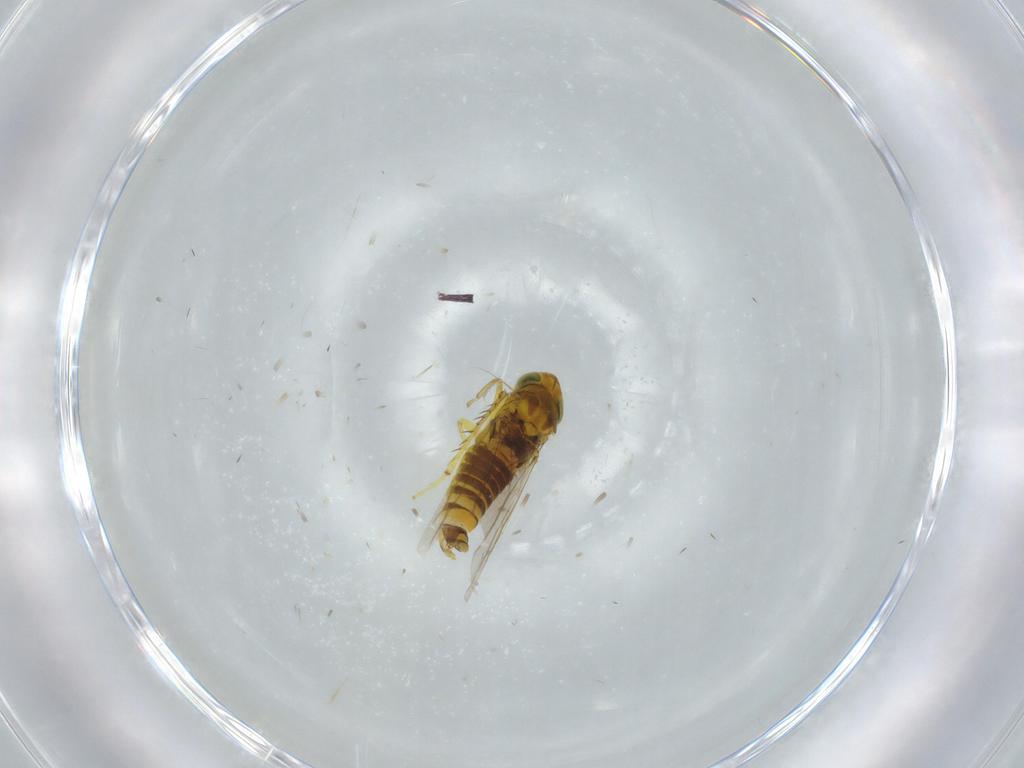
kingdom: Animalia
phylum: Arthropoda
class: Insecta
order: Hemiptera
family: Cicadellidae
